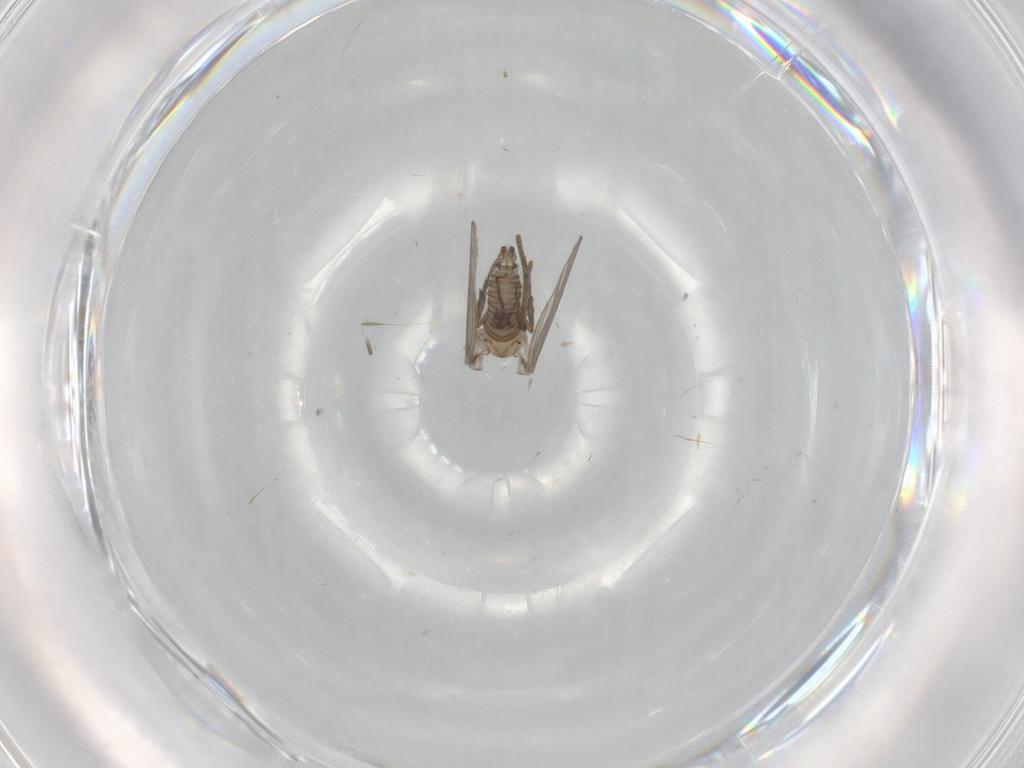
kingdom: Animalia
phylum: Arthropoda
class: Insecta
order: Diptera
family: Psychodidae
